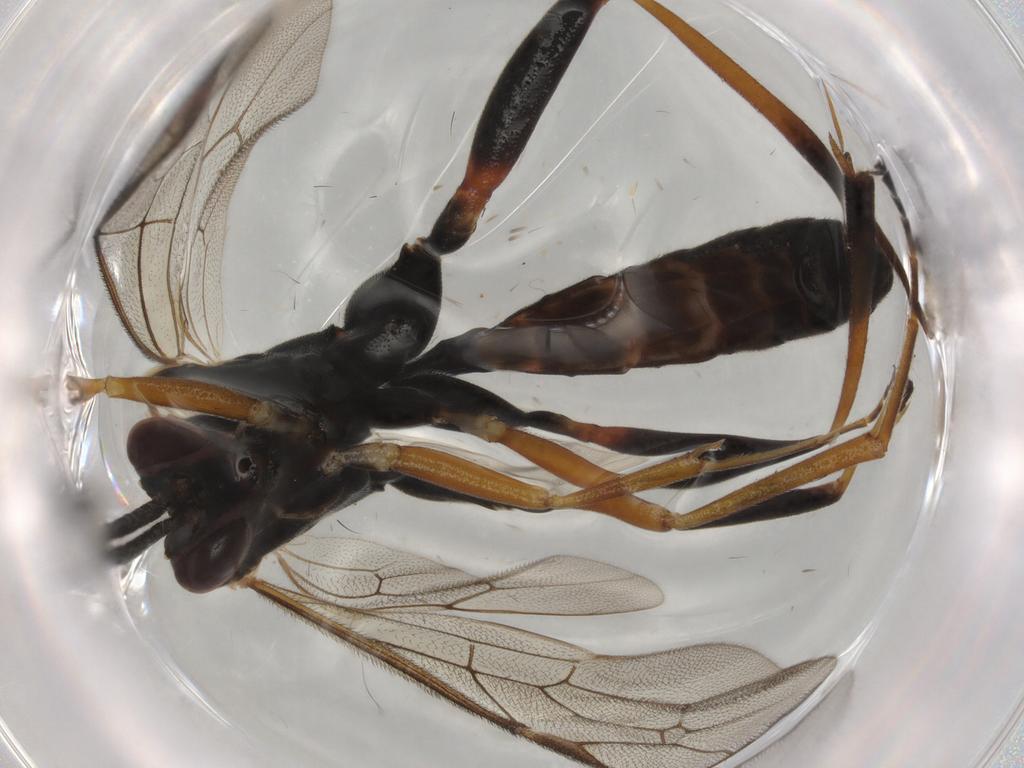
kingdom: Animalia
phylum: Arthropoda
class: Insecta
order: Hymenoptera
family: Ichneumonidae
